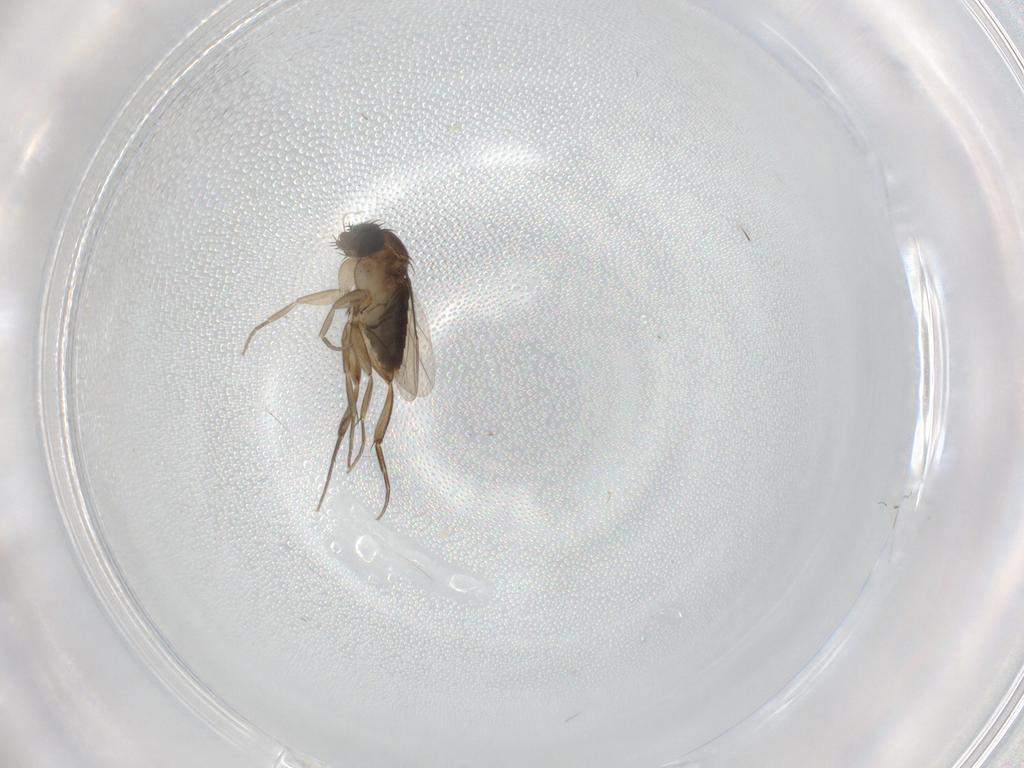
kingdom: Animalia
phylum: Arthropoda
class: Insecta
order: Diptera
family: Phoridae
